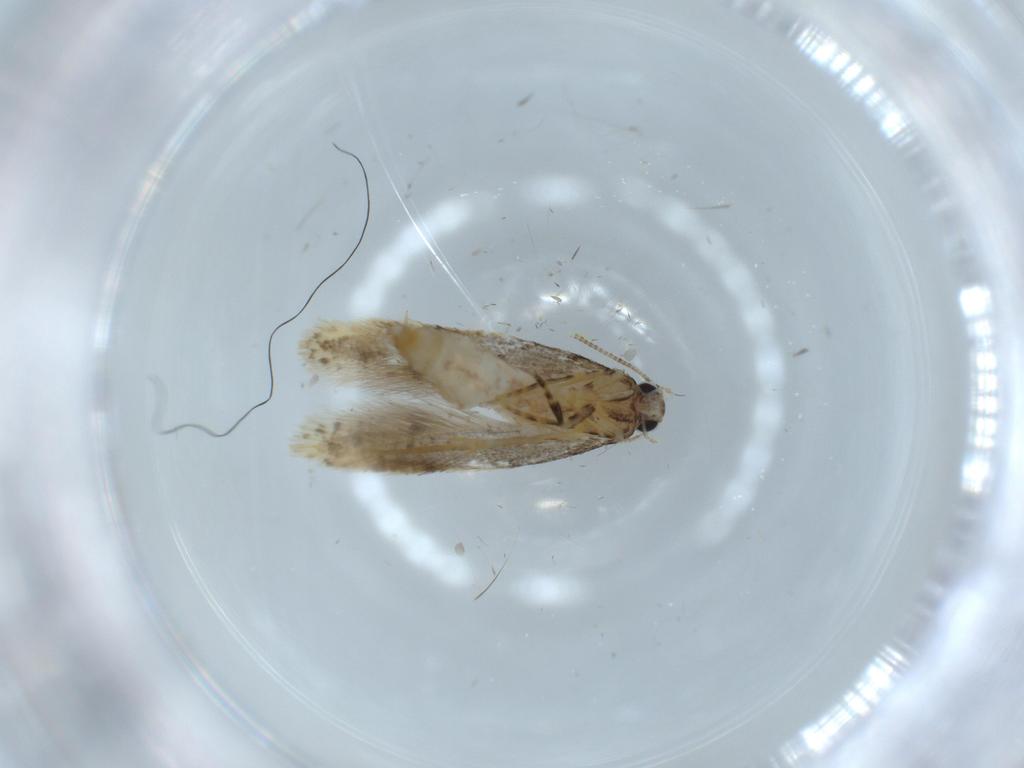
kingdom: Animalia
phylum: Arthropoda
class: Insecta
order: Lepidoptera
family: Tineidae
